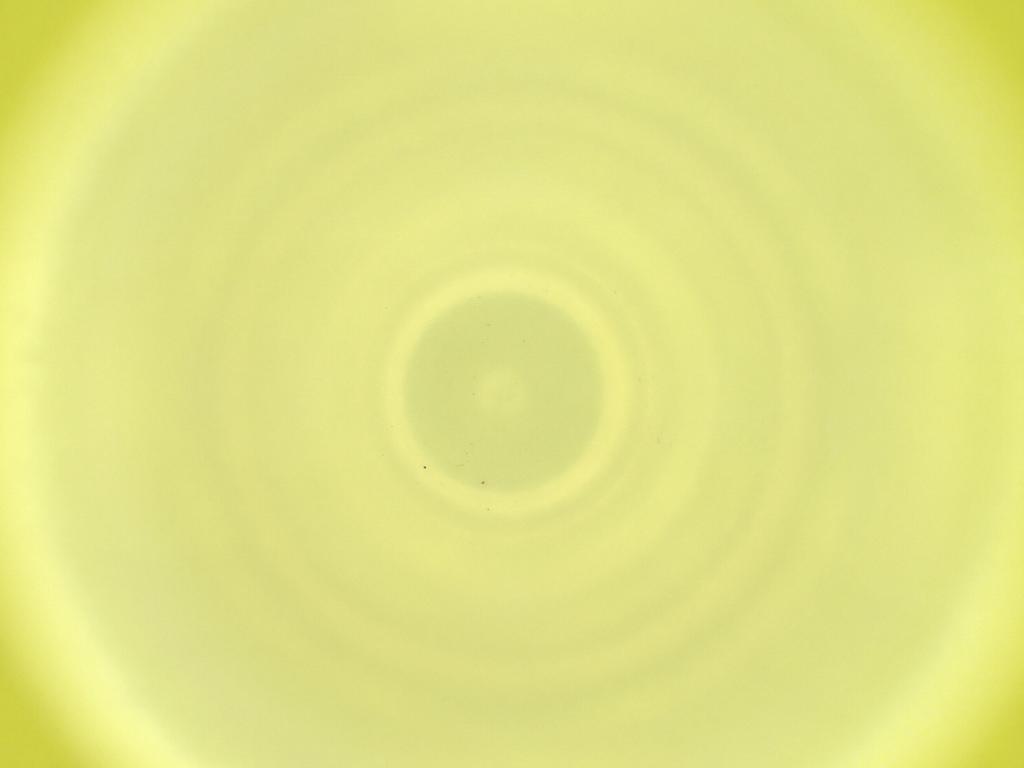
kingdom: Animalia
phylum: Arthropoda
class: Insecta
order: Diptera
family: Cecidomyiidae
